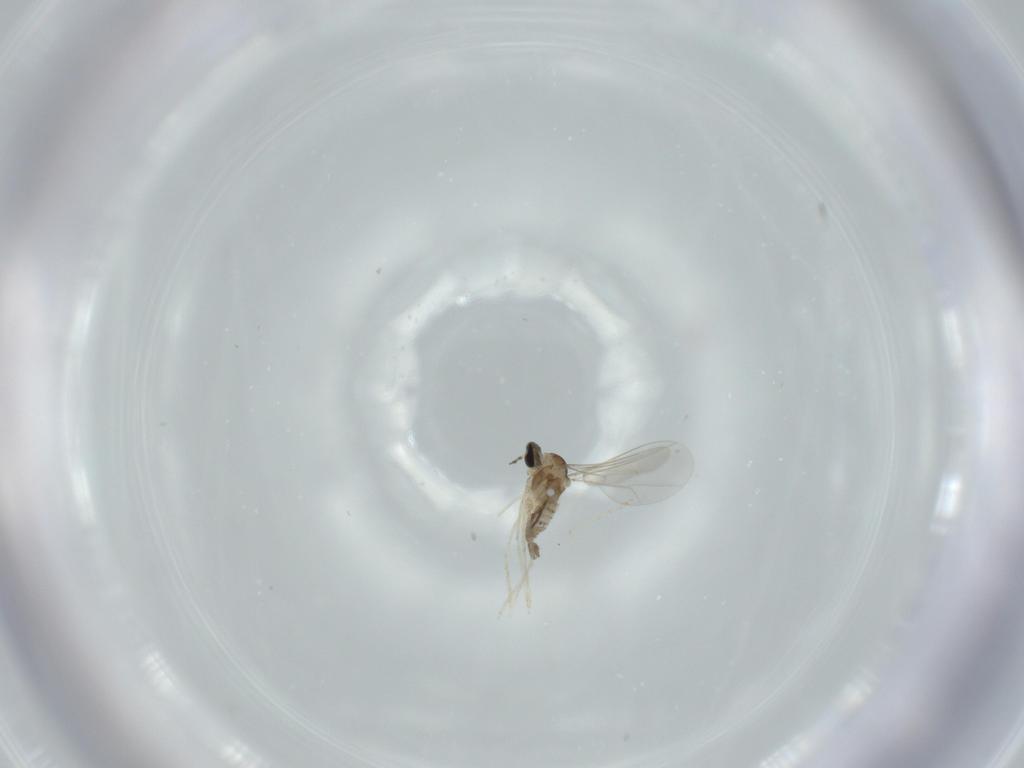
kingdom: Animalia
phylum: Arthropoda
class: Insecta
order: Diptera
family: Cecidomyiidae
